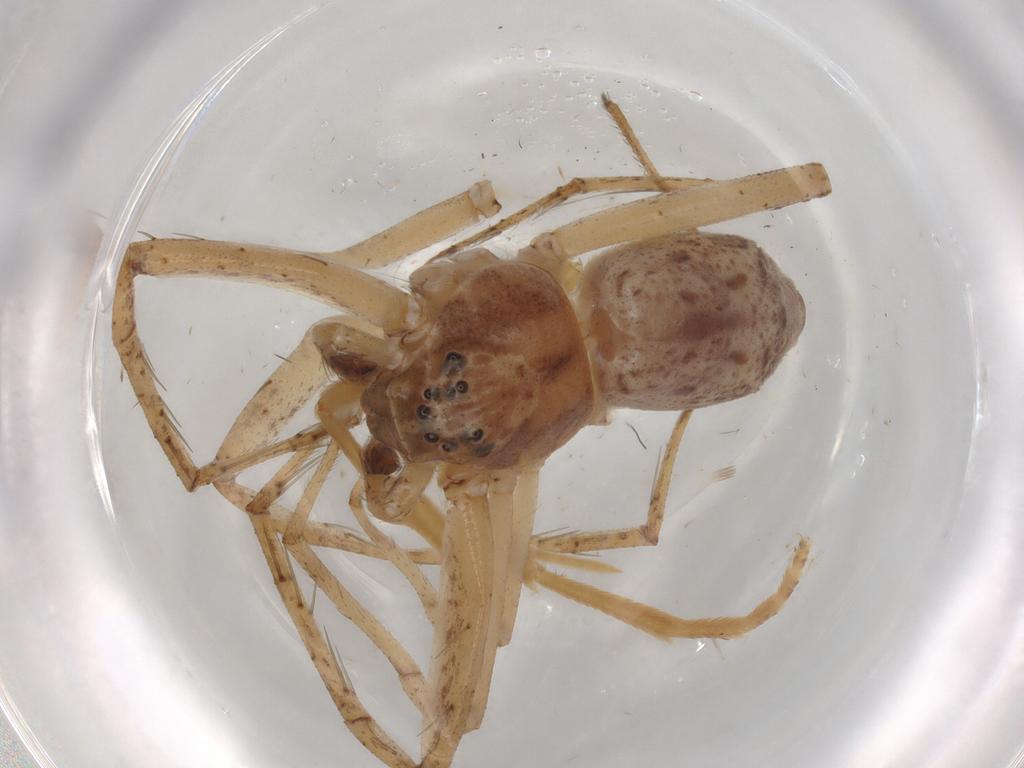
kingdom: Animalia
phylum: Arthropoda
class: Arachnida
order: Araneae
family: Philodromidae
